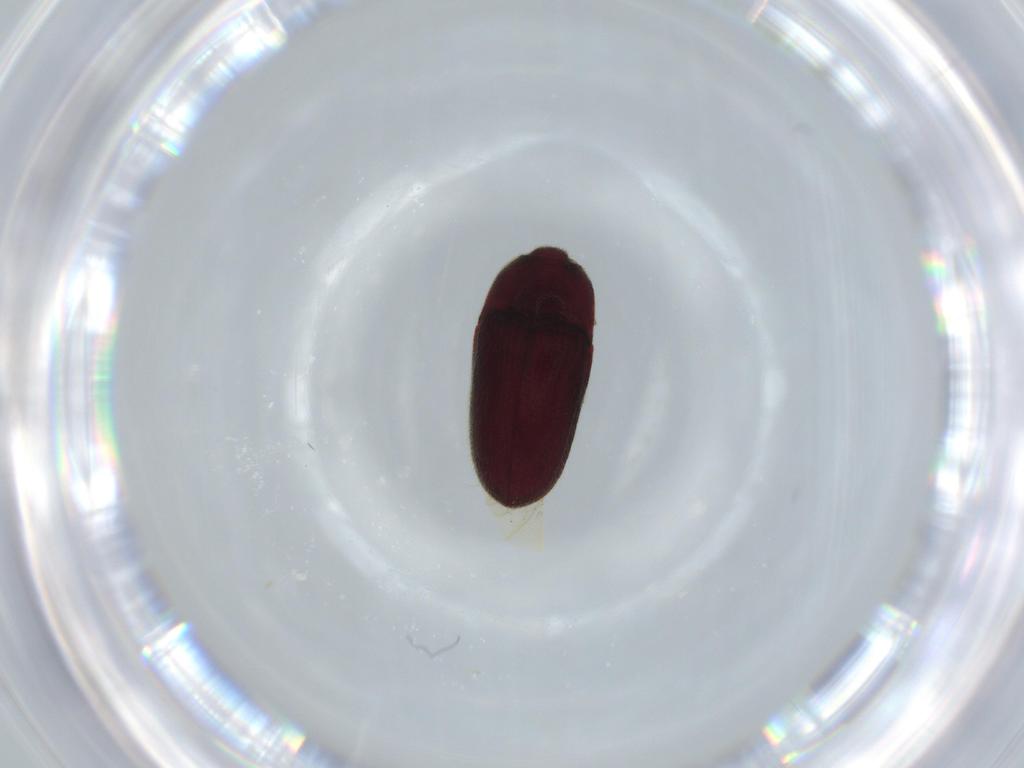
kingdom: Animalia
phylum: Arthropoda
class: Insecta
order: Coleoptera
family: Throscidae
